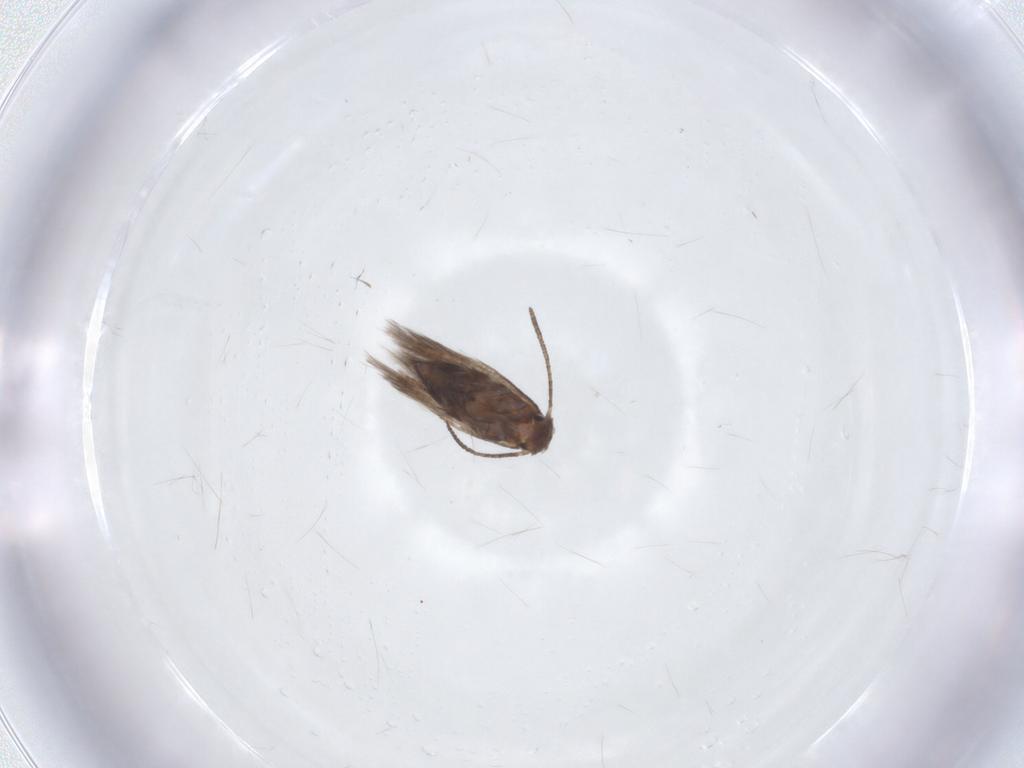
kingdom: Animalia
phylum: Arthropoda
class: Insecta
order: Lepidoptera
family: Lyonetiidae
